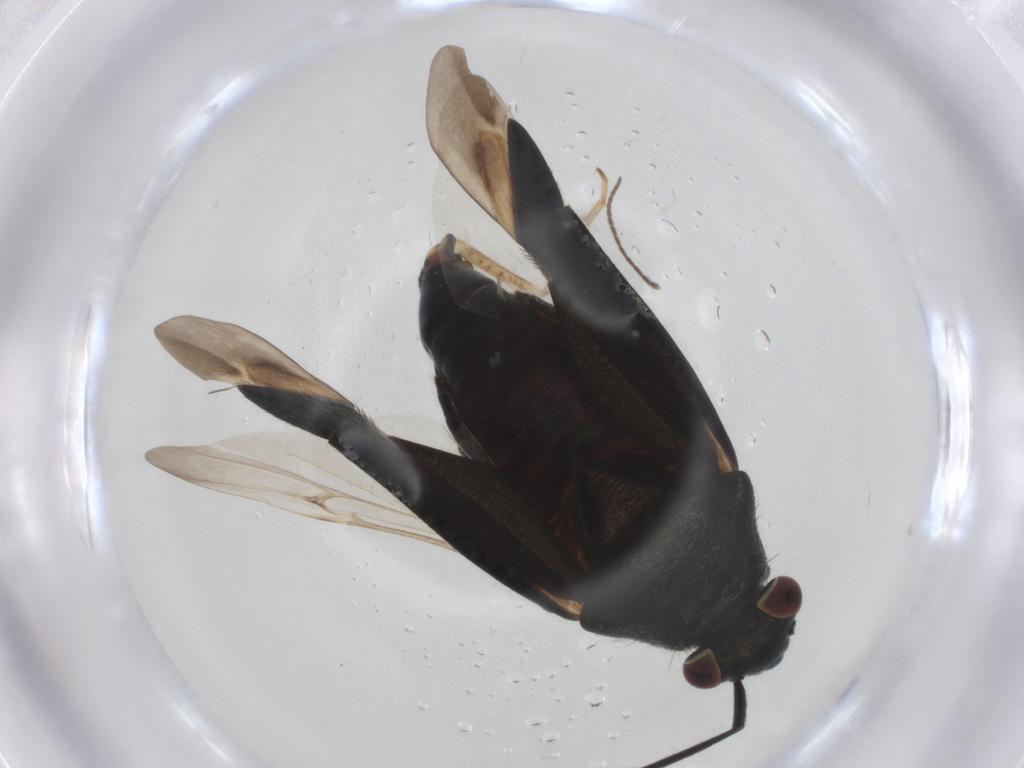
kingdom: Animalia
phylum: Arthropoda
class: Insecta
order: Hemiptera
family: Miridae
